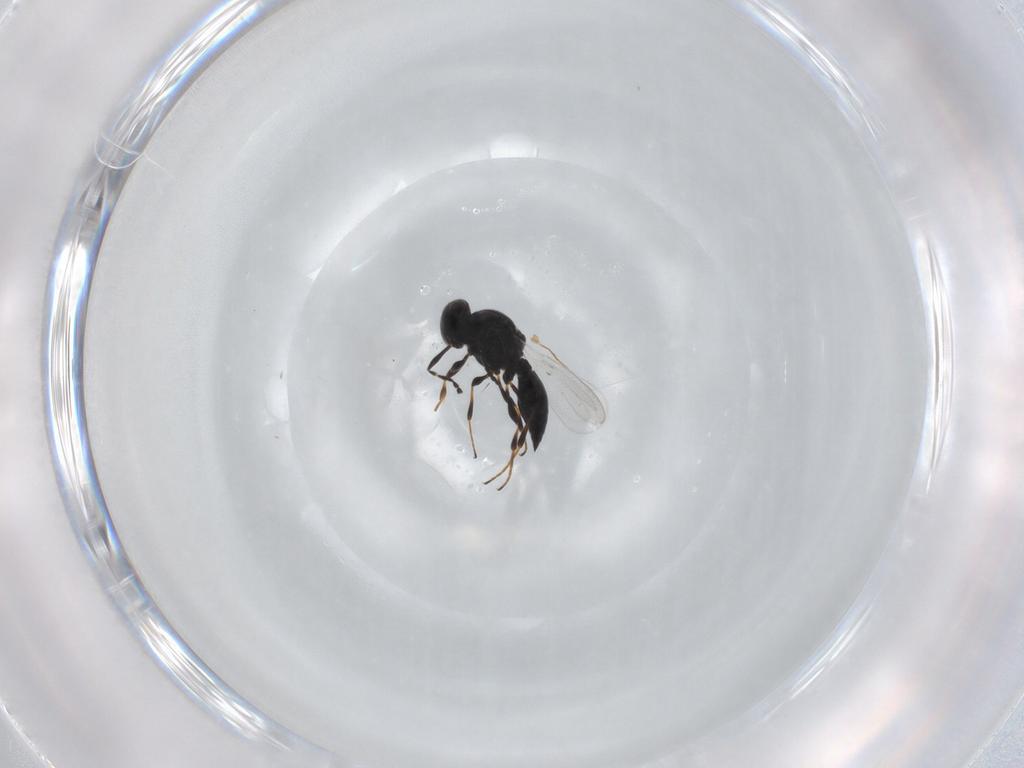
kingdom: Animalia
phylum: Arthropoda
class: Insecta
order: Hymenoptera
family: Platygastridae
